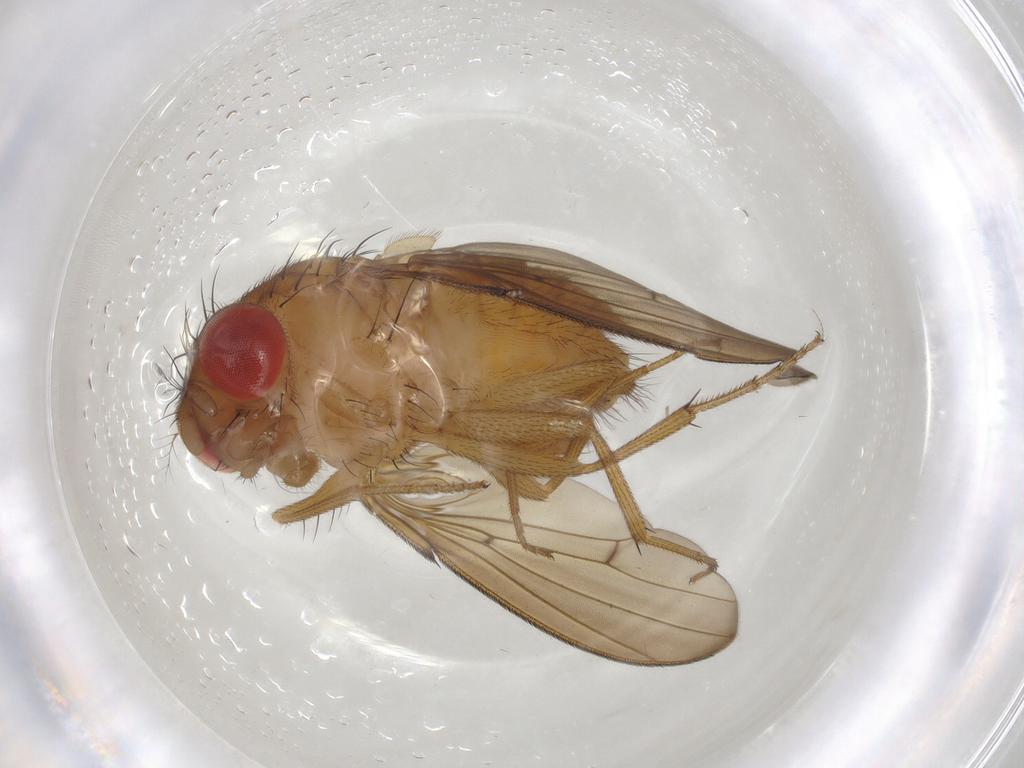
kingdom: Animalia
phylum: Arthropoda
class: Insecta
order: Diptera
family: Drosophilidae
